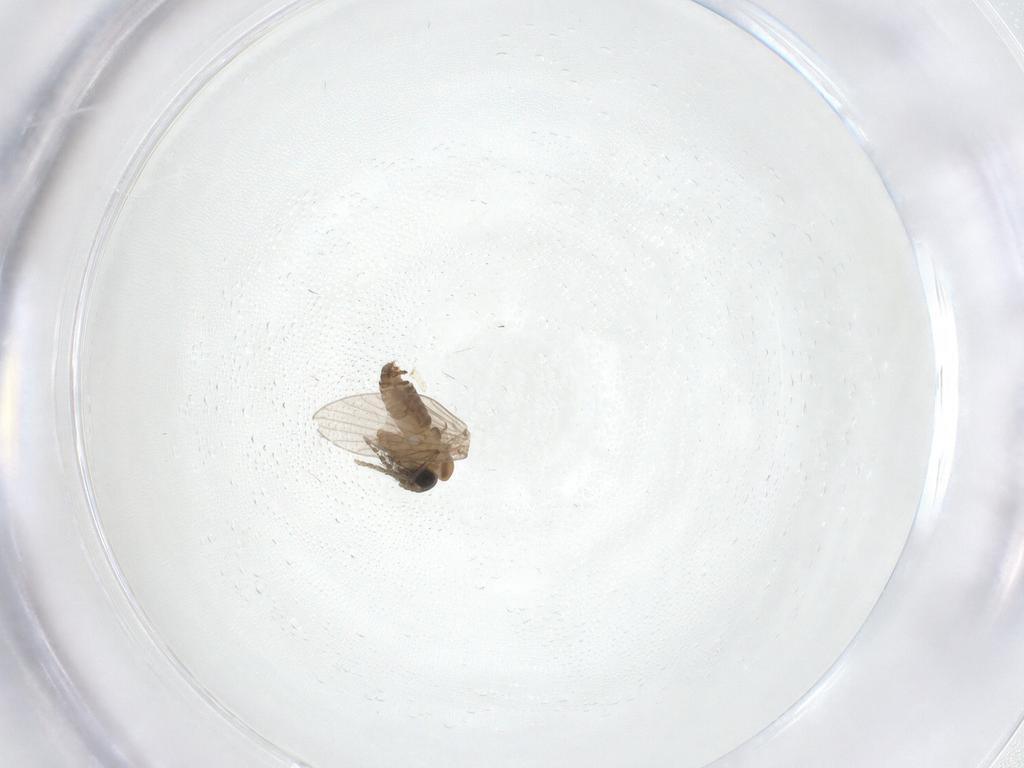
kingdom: Animalia
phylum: Arthropoda
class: Insecta
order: Diptera
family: Psychodidae
